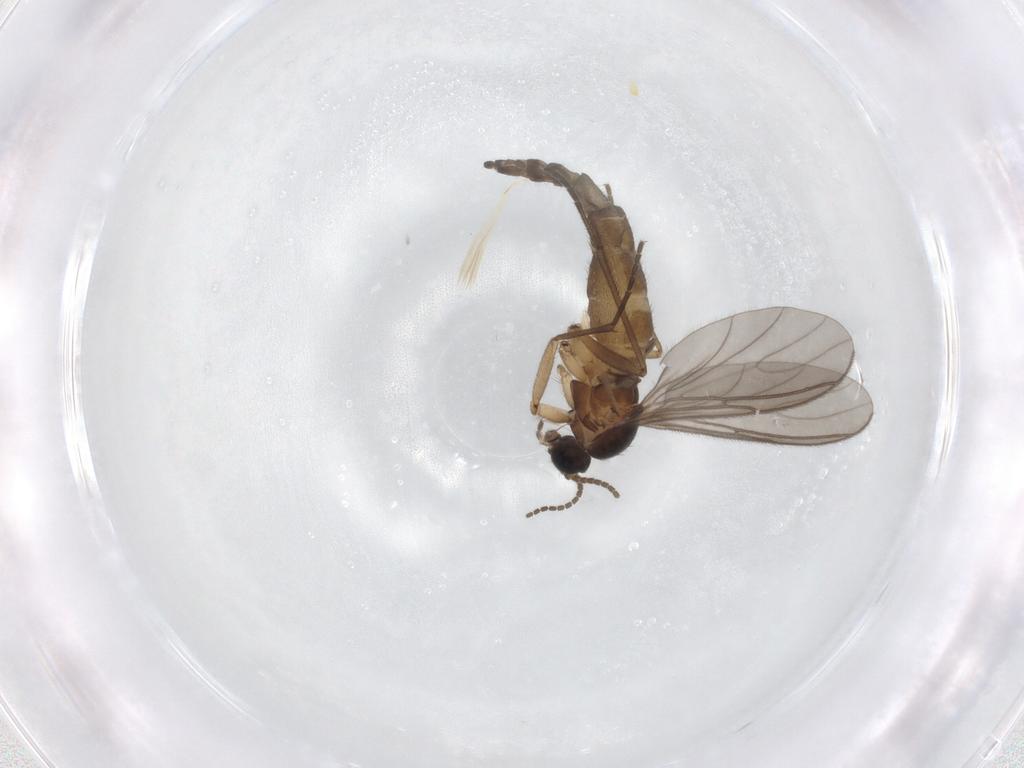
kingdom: Animalia
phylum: Arthropoda
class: Insecta
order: Diptera
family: Sciaridae
